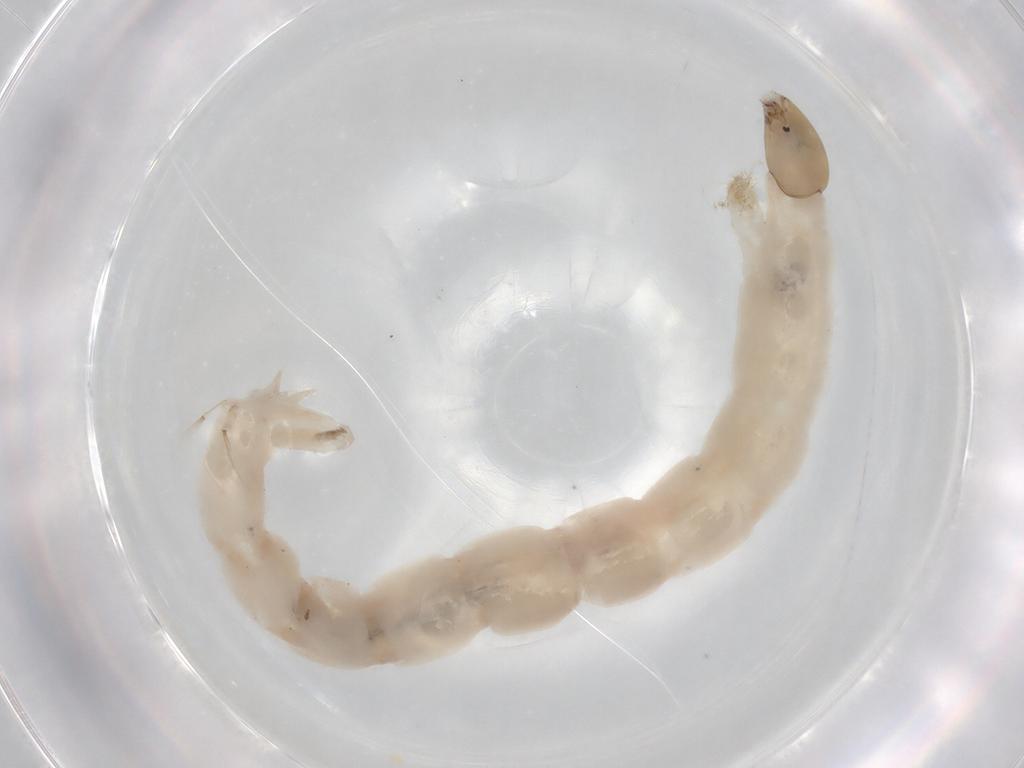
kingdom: Animalia
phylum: Arthropoda
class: Insecta
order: Diptera
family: Chironomidae
